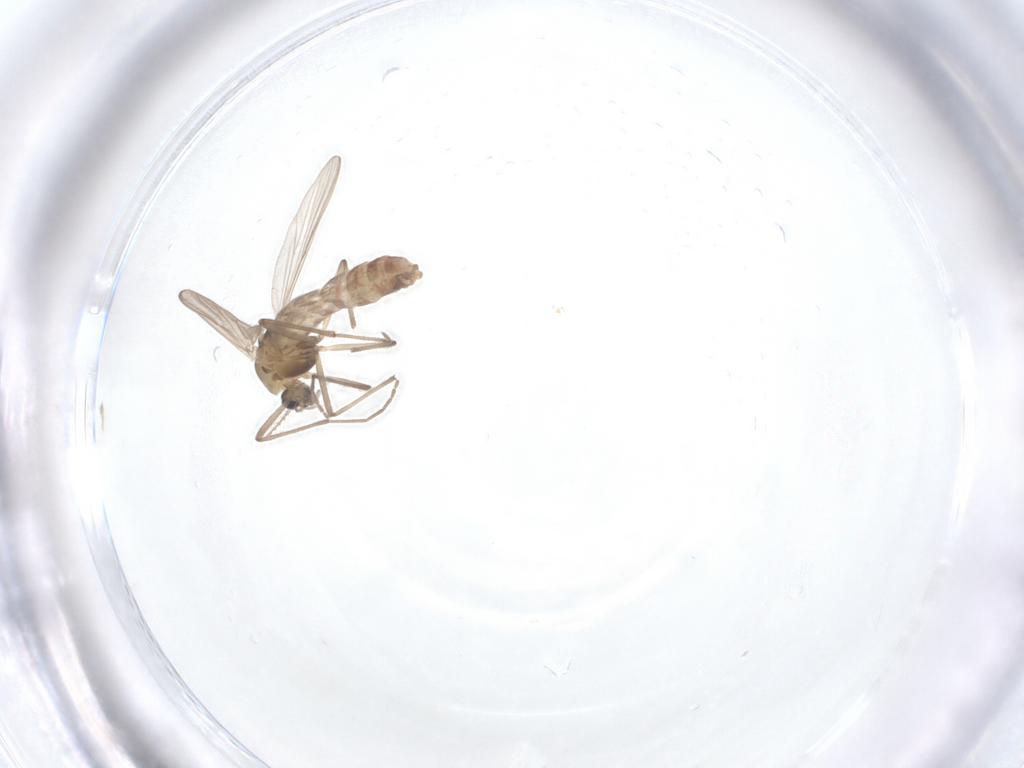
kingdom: Animalia
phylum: Arthropoda
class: Insecta
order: Diptera
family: Chironomidae
